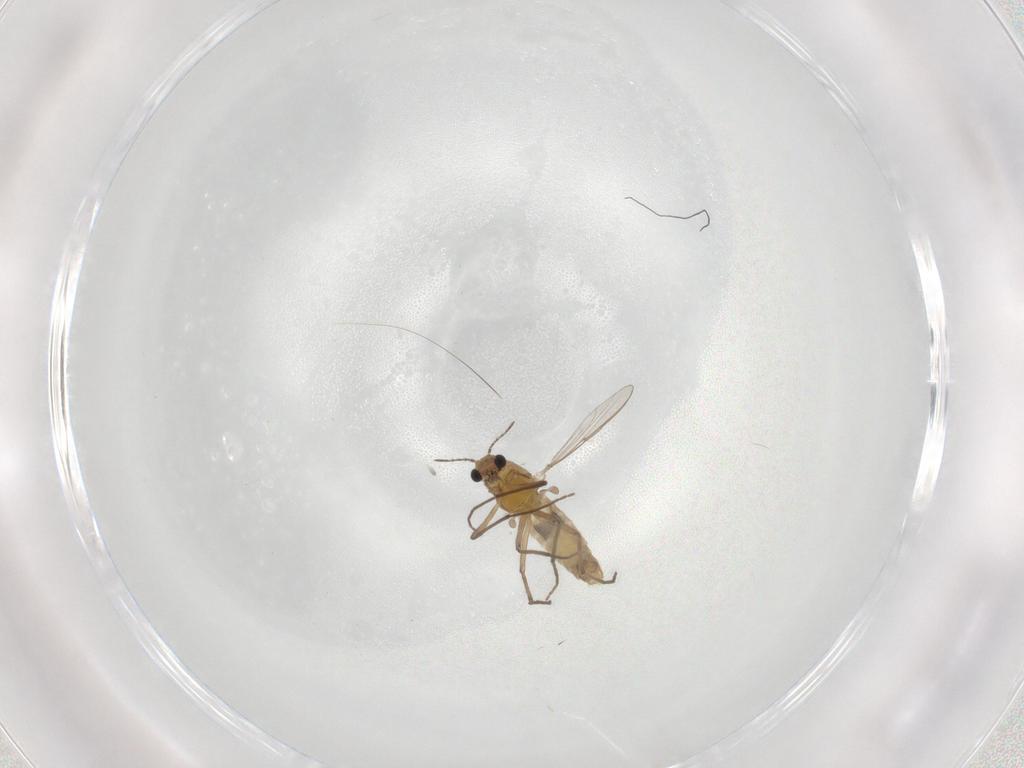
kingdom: Animalia
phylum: Arthropoda
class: Insecta
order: Diptera
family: Chironomidae
